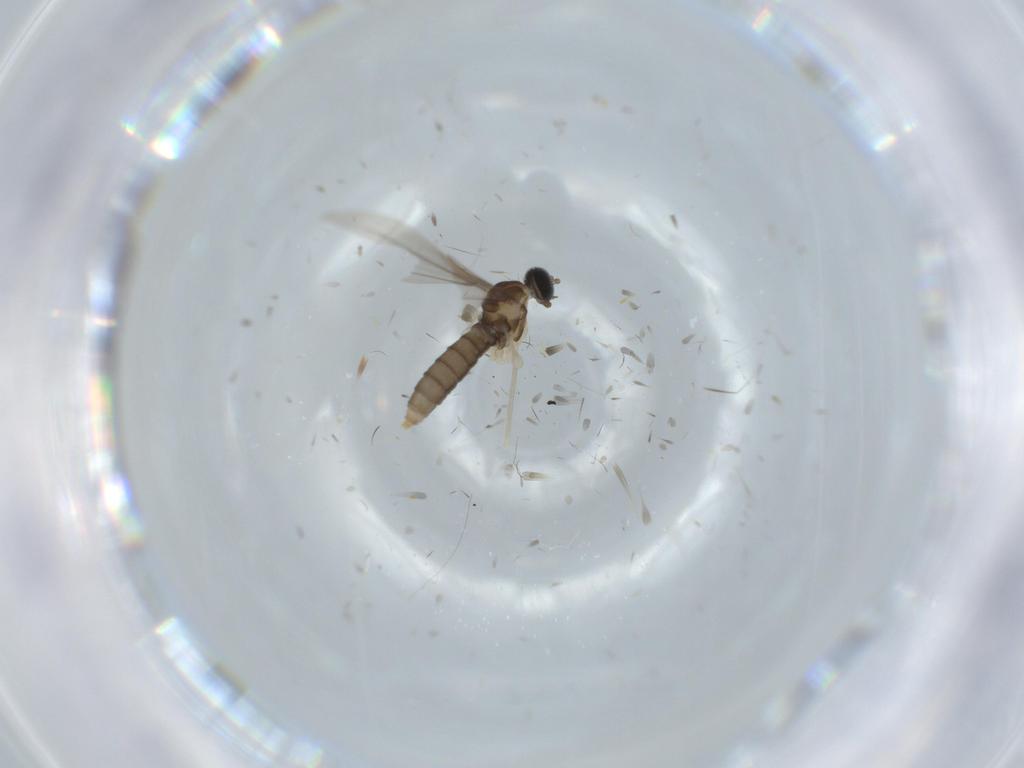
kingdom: Animalia
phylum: Arthropoda
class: Insecta
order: Diptera
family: Cecidomyiidae
